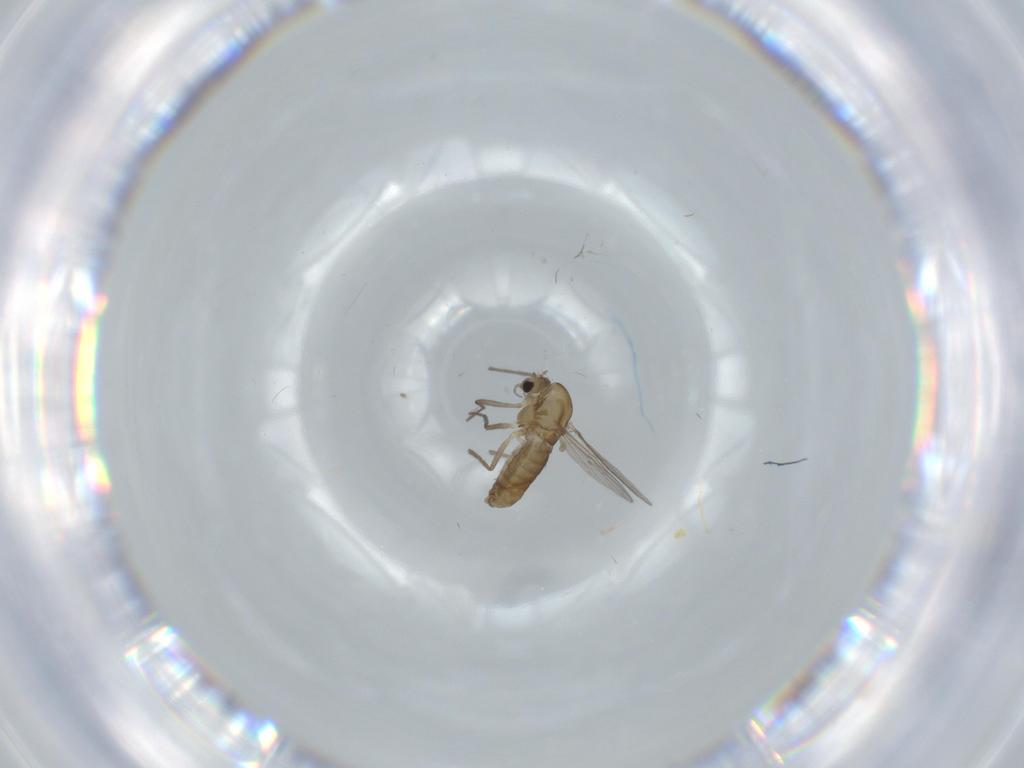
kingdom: Animalia
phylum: Arthropoda
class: Insecta
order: Diptera
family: Chironomidae
